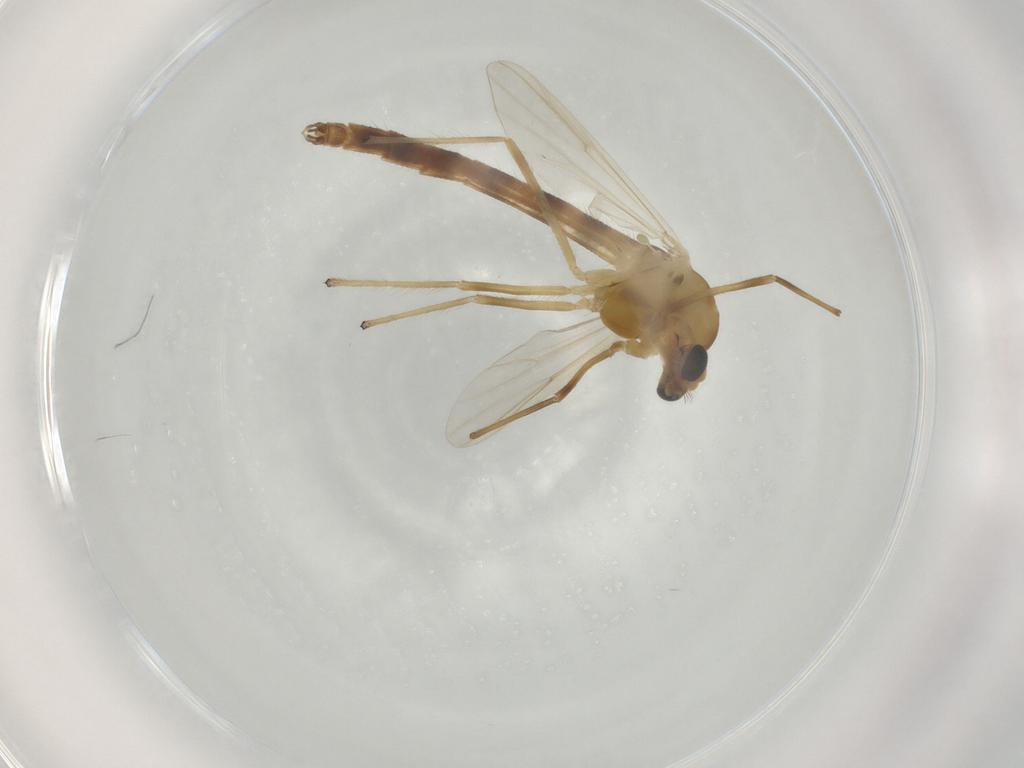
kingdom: Animalia
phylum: Arthropoda
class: Insecta
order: Diptera
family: Chironomidae
